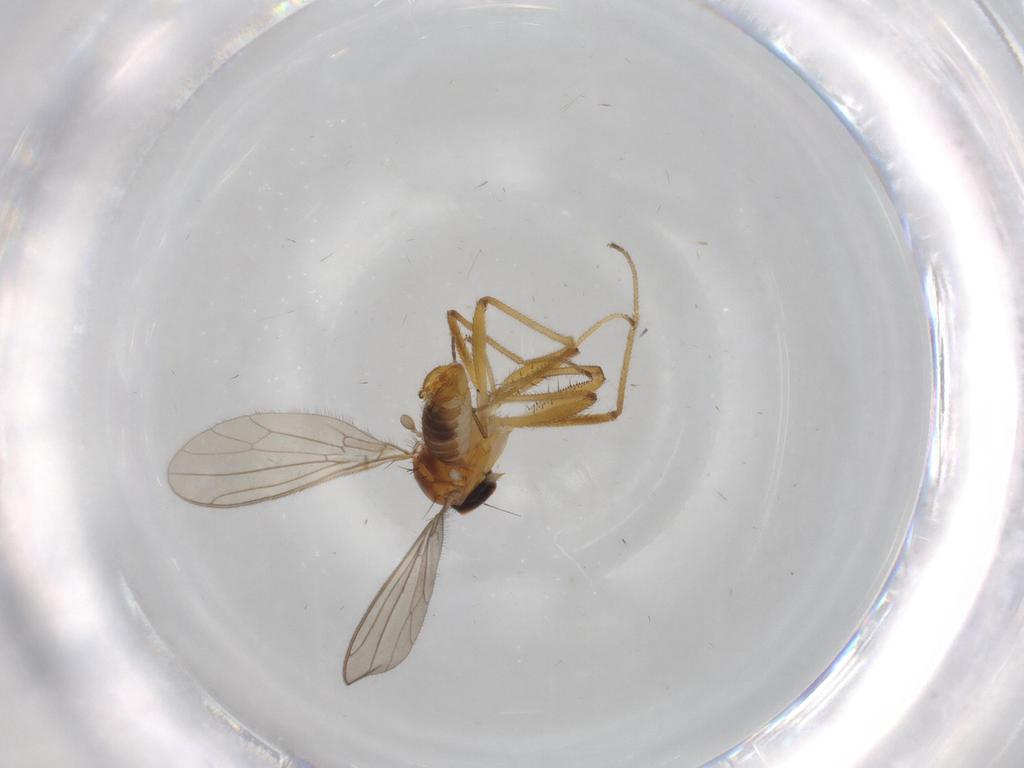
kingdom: Animalia
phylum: Arthropoda
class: Insecta
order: Diptera
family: Empididae
